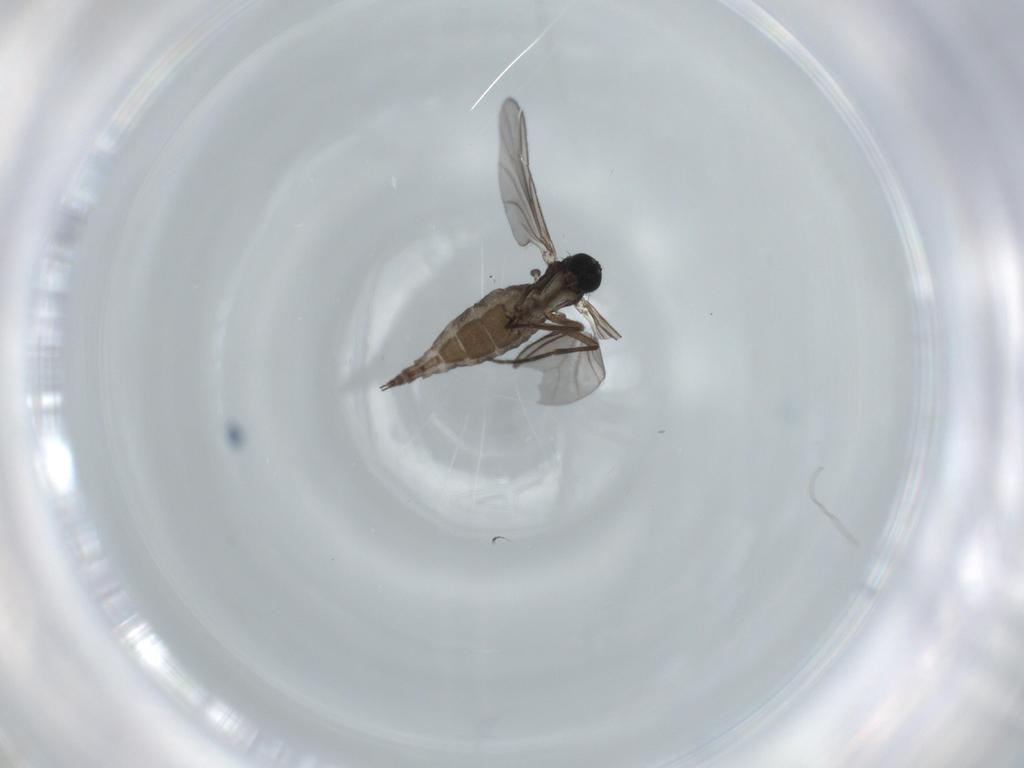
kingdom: Animalia
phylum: Arthropoda
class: Insecta
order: Diptera
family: Sciaridae
